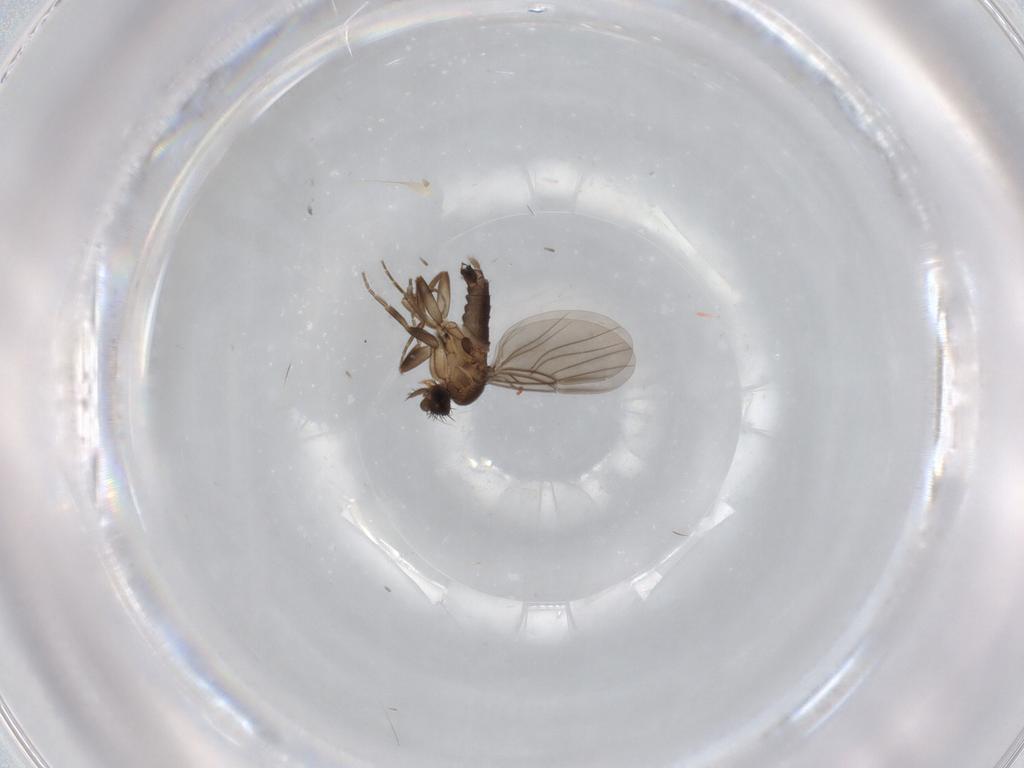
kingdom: Animalia
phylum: Arthropoda
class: Insecta
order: Diptera
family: Phoridae
